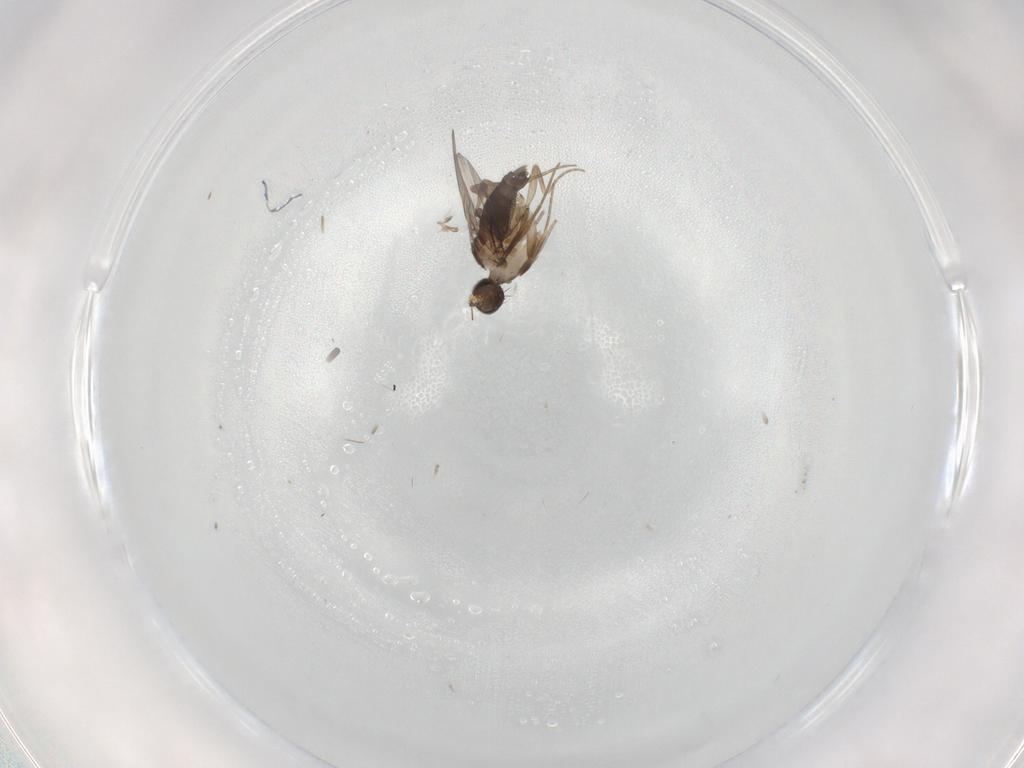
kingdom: Animalia
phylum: Arthropoda
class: Insecta
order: Diptera
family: Phoridae
